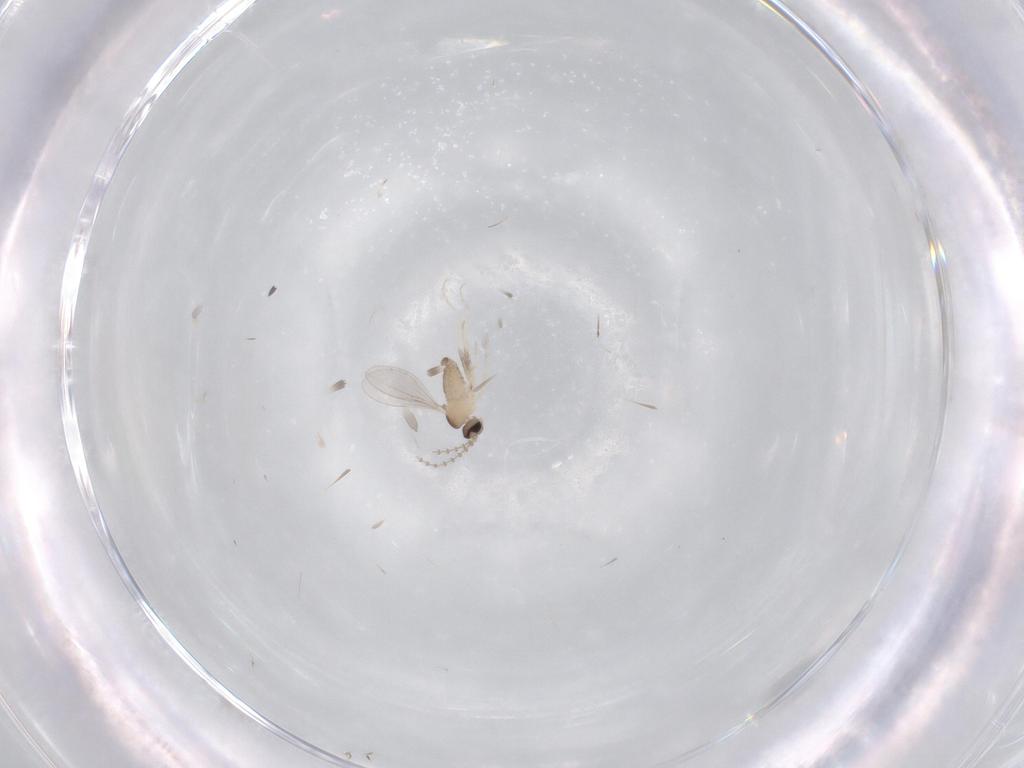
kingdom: Animalia
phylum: Arthropoda
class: Insecta
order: Diptera
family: Cecidomyiidae
